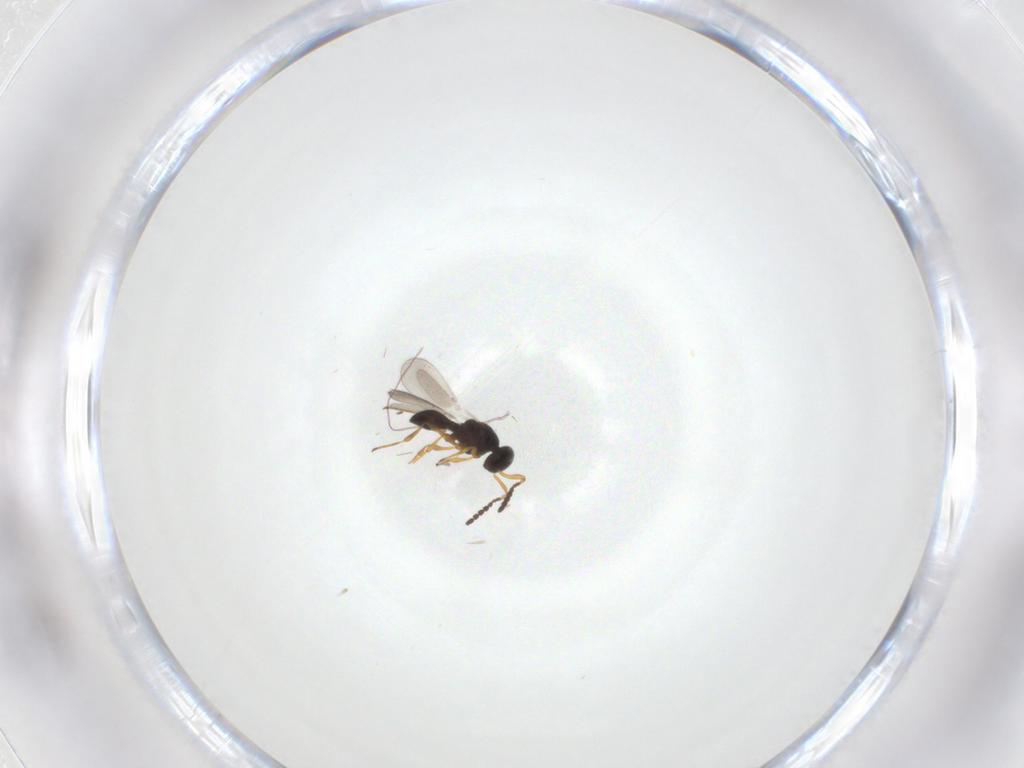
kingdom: Animalia
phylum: Arthropoda
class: Insecta
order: Hymenoptera
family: Platygastridae
